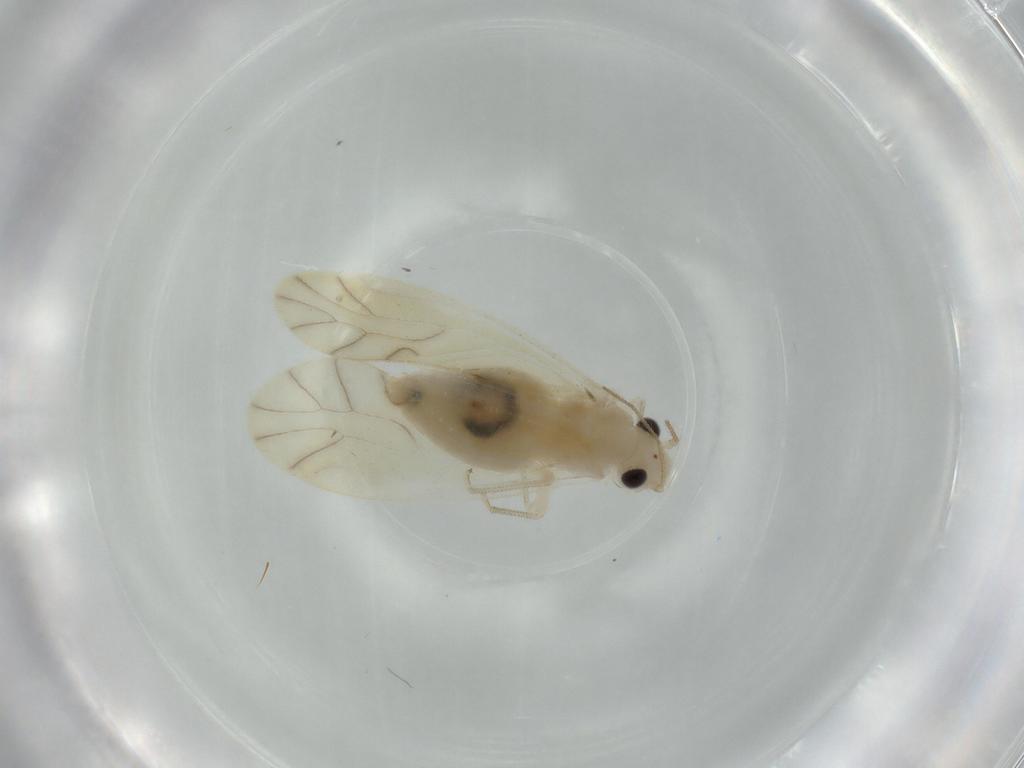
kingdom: Animalia
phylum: Arthropoda
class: Insecta
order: Psocodea
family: Caeciliusidae
